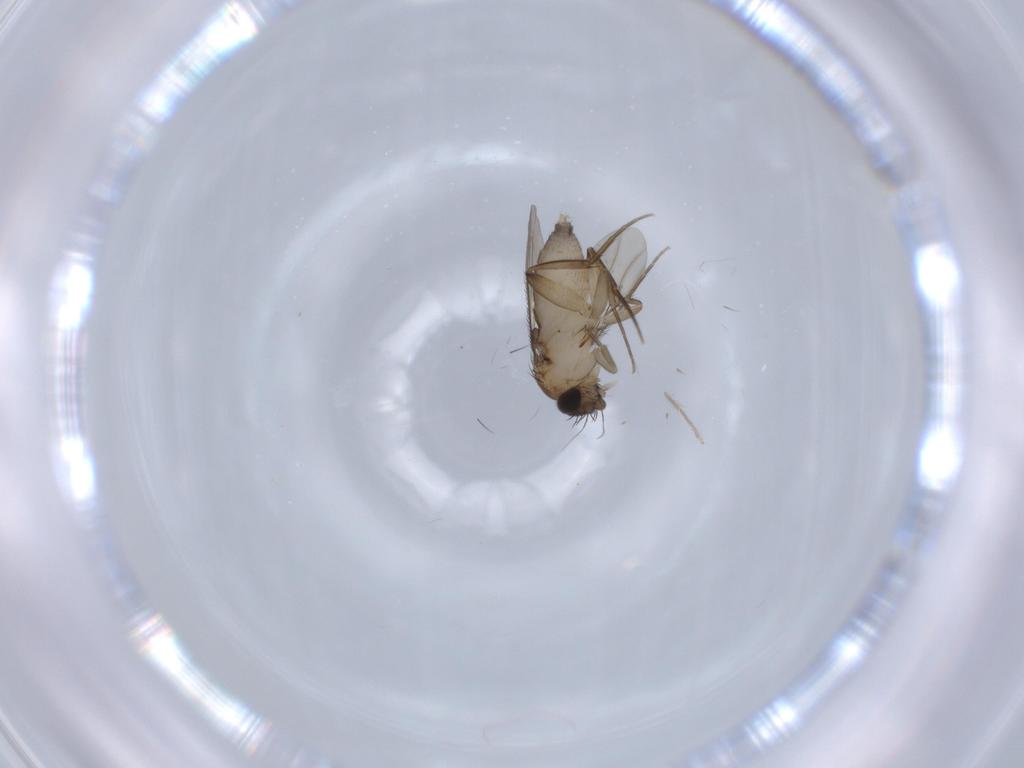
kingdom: Animalia
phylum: Arthropoda
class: Insecta
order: Diptera
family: Phoridae
